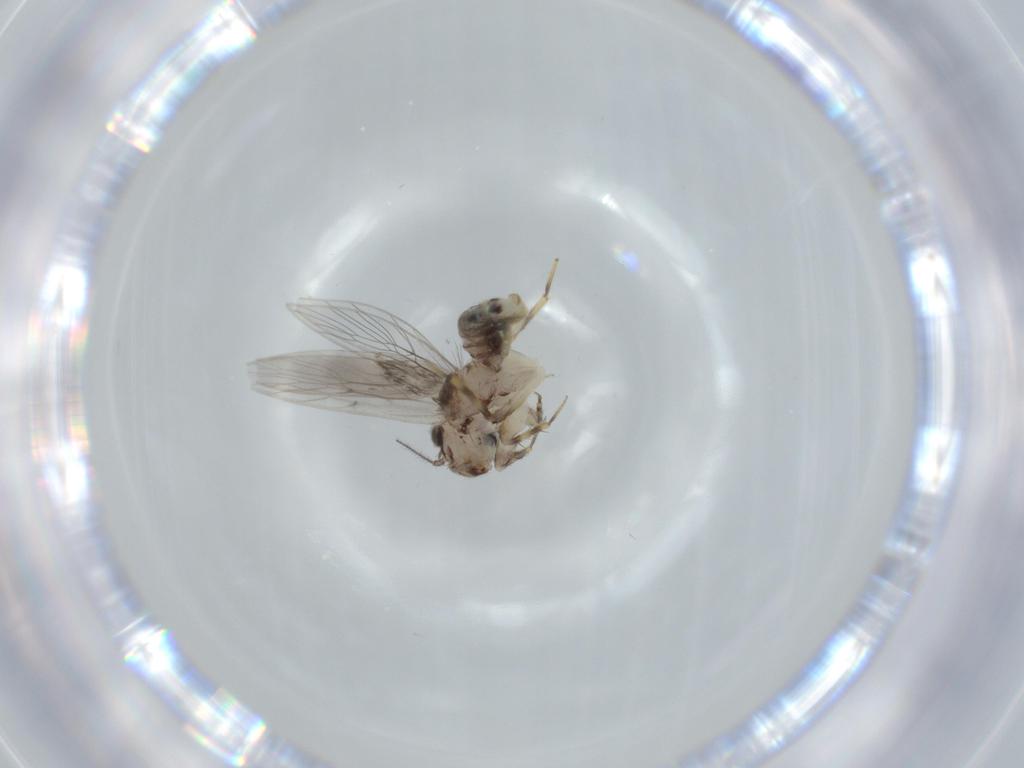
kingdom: Animalia
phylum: Arthropoda
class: Insecta
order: Psocodea
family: Lepidopsocidae
